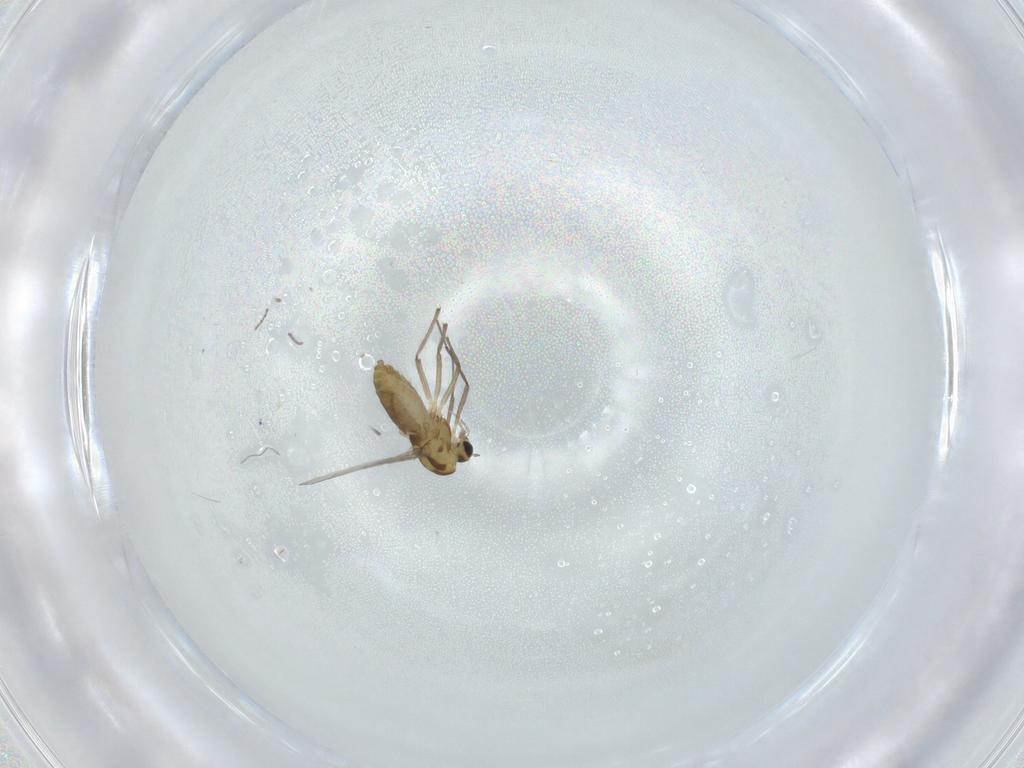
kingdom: Animalia
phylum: Arthropoda
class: Insecta
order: Diptera
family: Chironomidae
